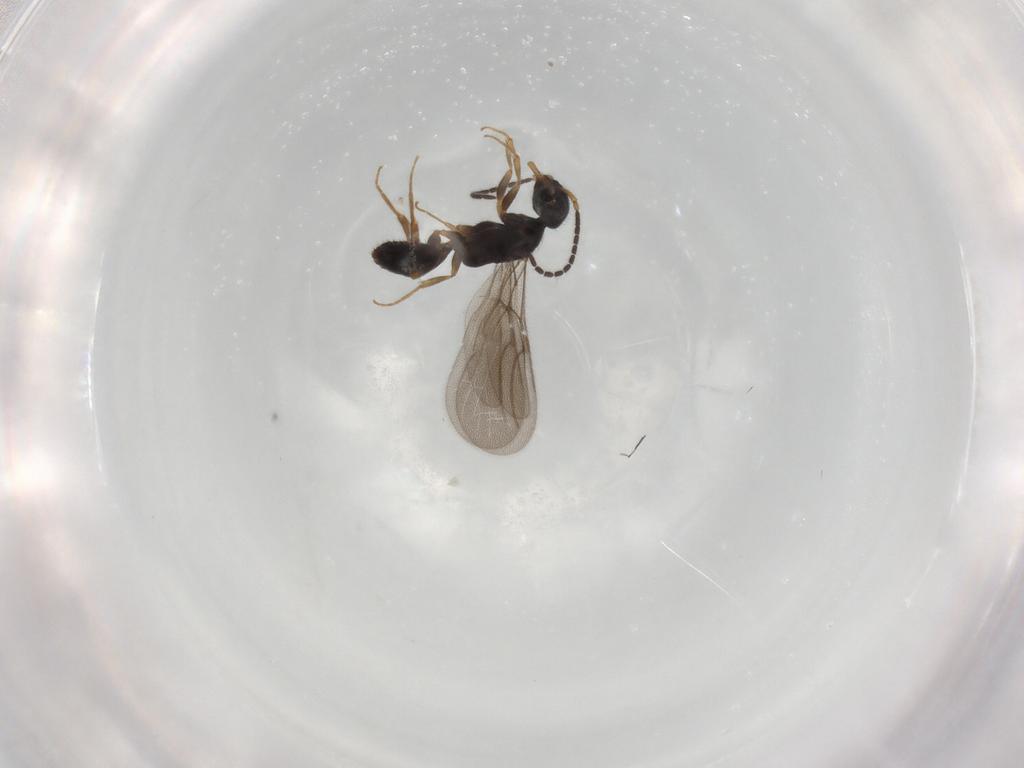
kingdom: Animalia
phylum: Arthropoda
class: Insecta
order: Hymenoptera
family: Bethylidae
